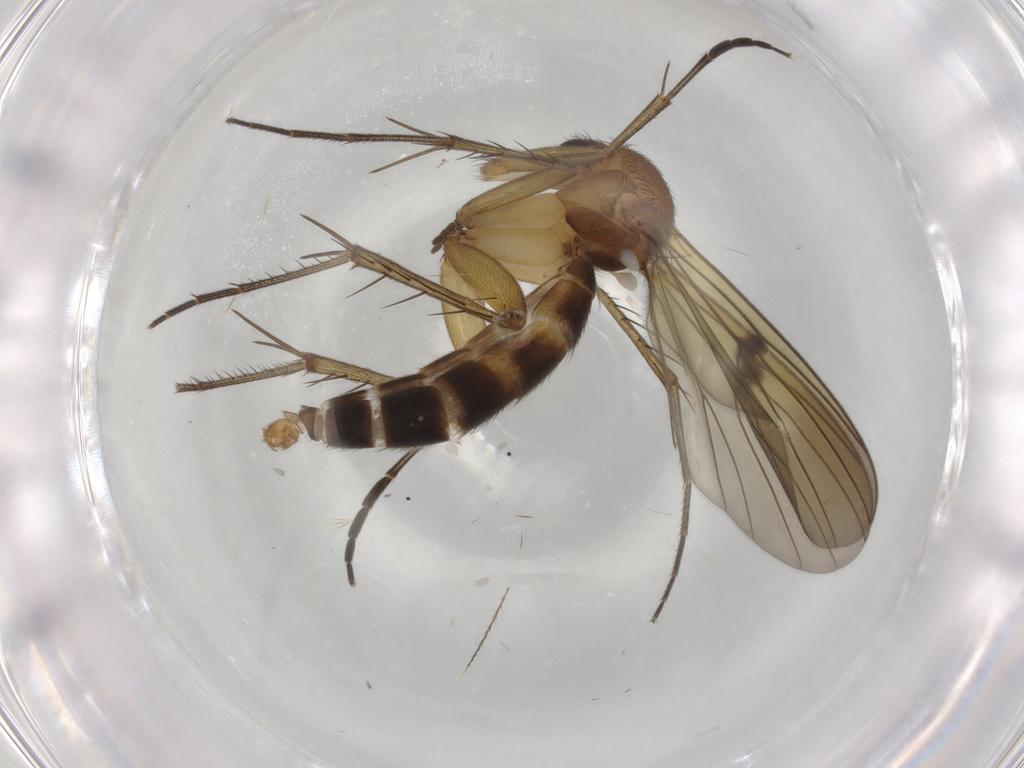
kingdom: Animalia
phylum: Arthropoda
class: Insecta
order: Diptera
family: Mycetophilidae
